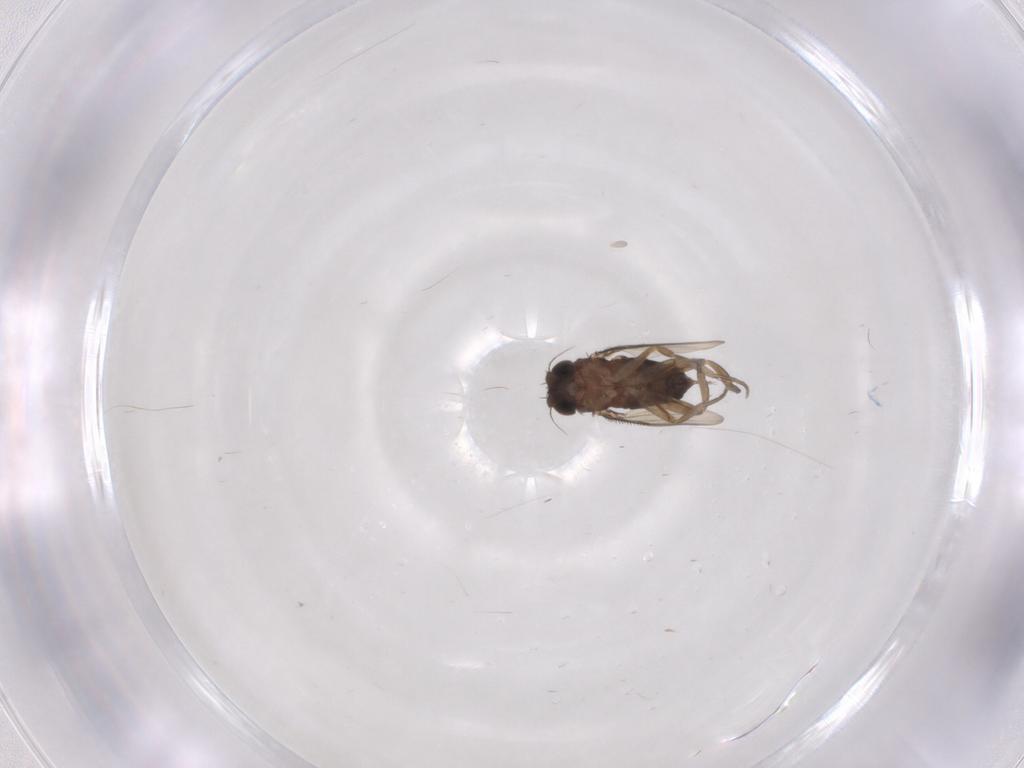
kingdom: Animalia
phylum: Arthropoda
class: Insecta
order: Diptera
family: Phoridae
